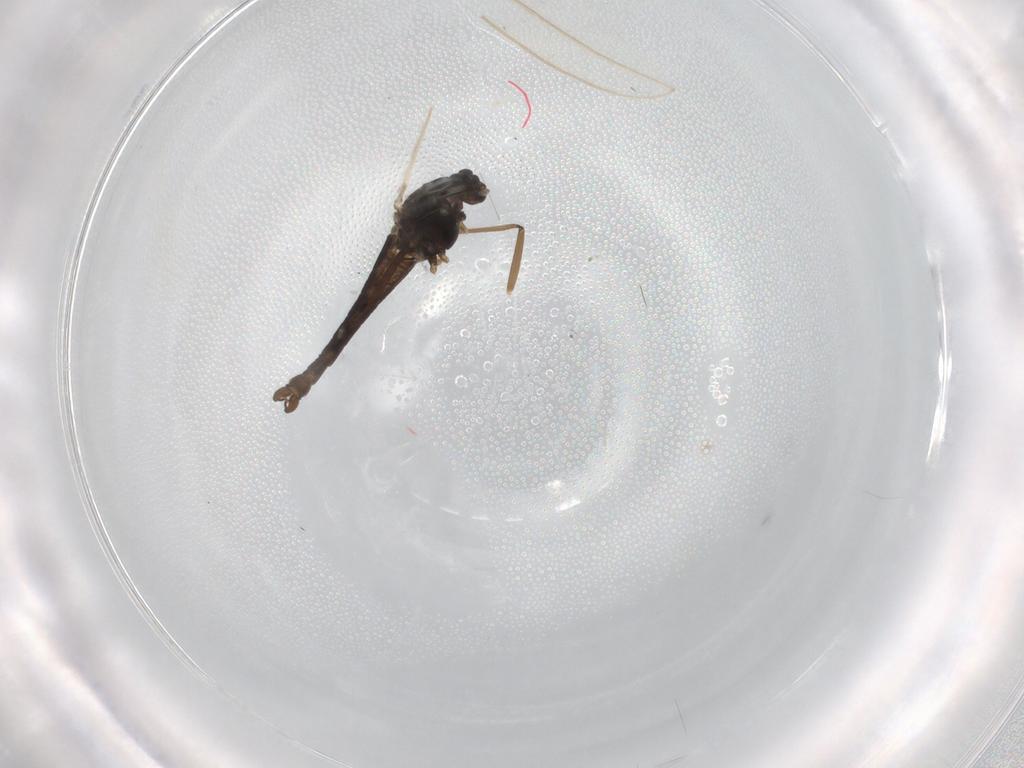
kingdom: Animalia
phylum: Arthropoda
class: Insecta
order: Diptera
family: Chironomidae
